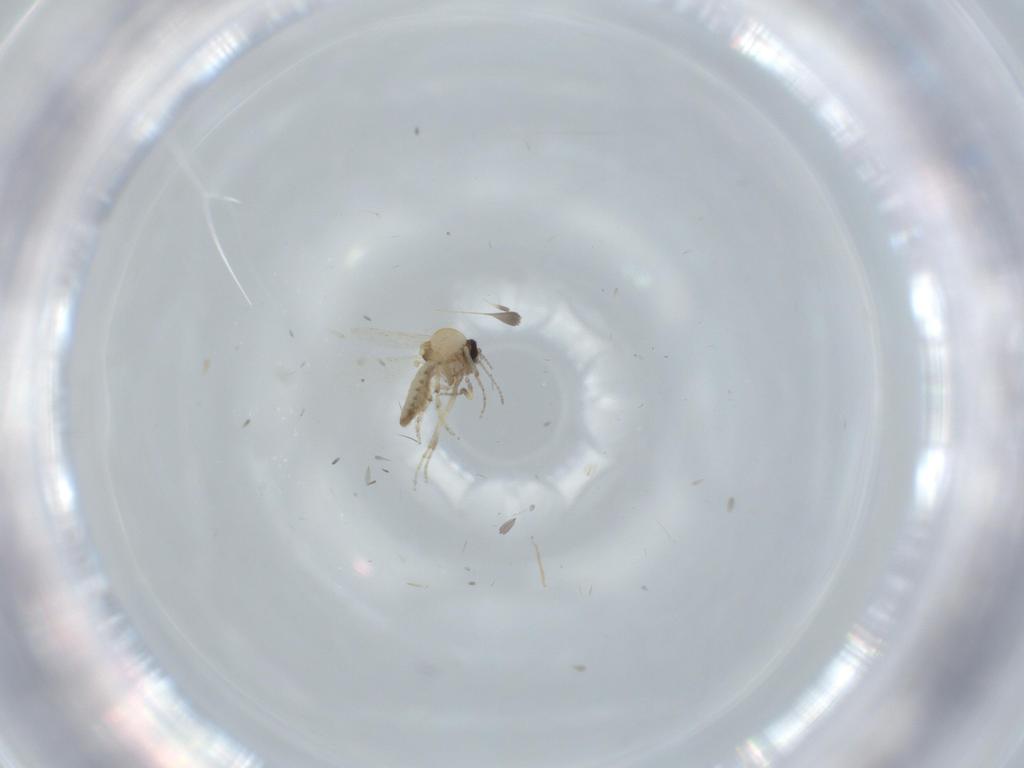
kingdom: Animalia
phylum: Arthropoda
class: Insecta
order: Diptera
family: Ceratopogonidae
